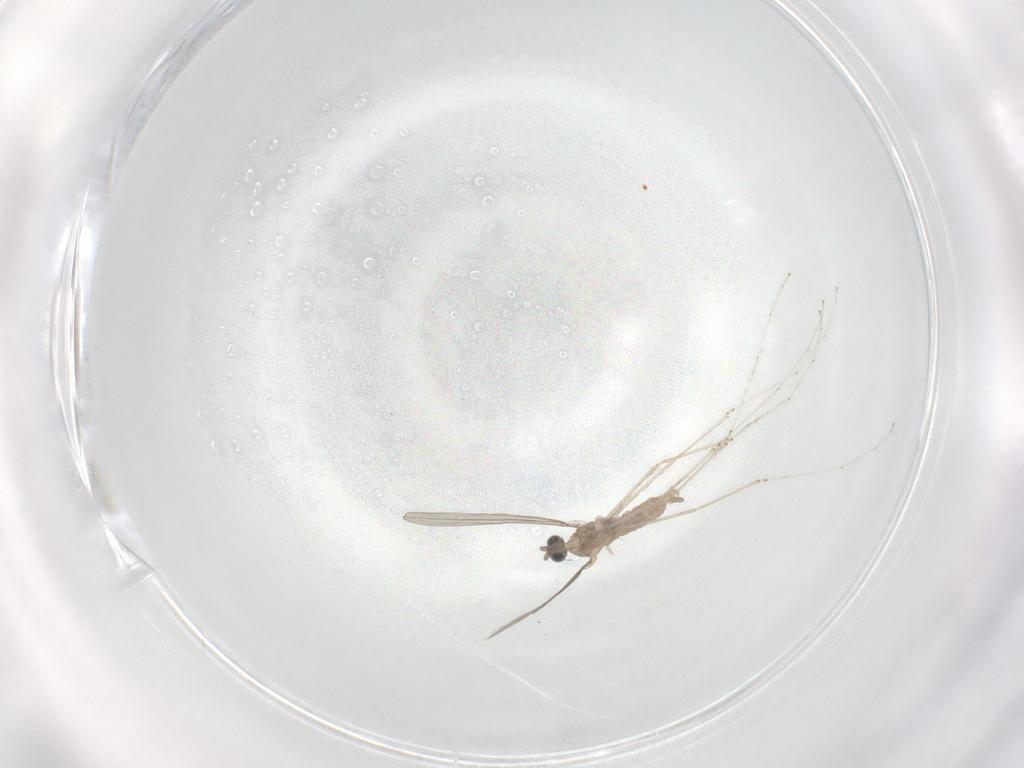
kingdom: Animalia
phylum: Arthropoda
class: Insecta
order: Diptera
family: Cecidomyiidae
